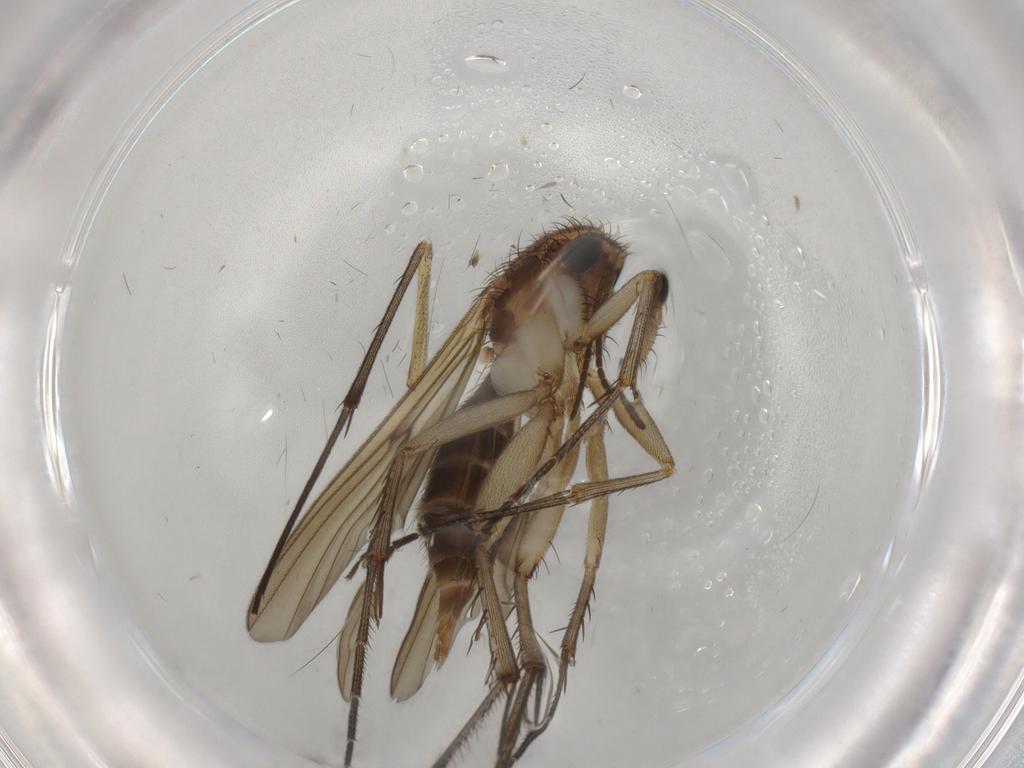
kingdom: Animalia
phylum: Arthropoda
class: Insecta
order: Diptera
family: Mycetophilidae
